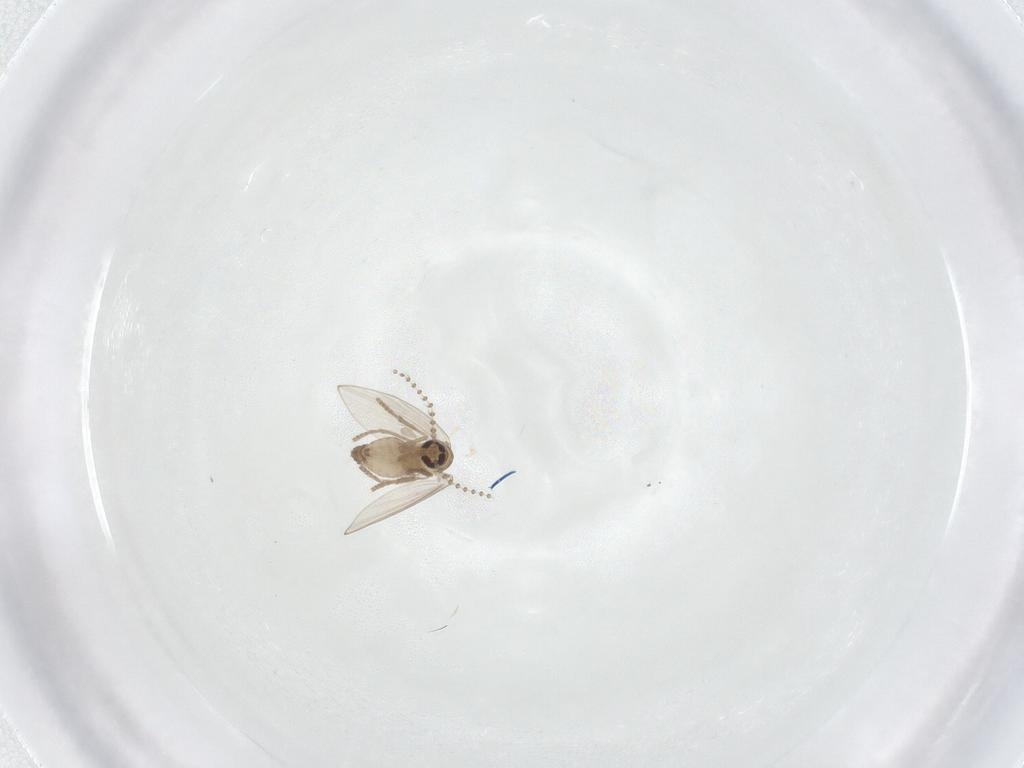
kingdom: Animalia
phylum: Arthropoda
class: Insecta
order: Diptera
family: Psychodidae
